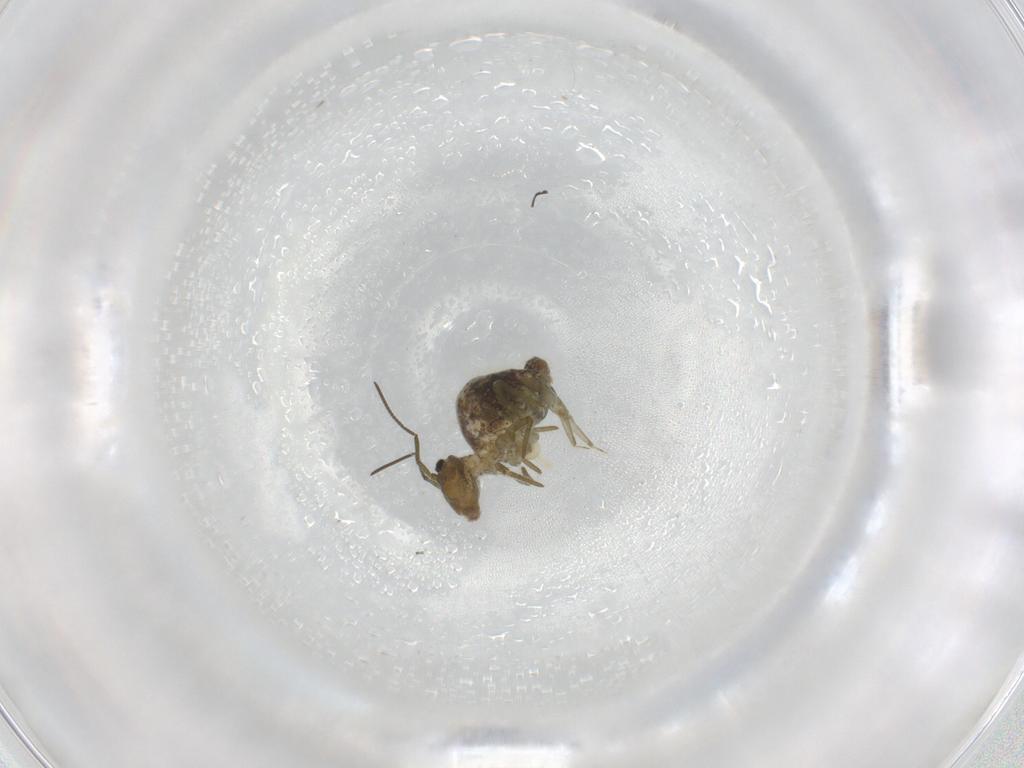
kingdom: Animalia
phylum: Arthropoda
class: Collembola
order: Symphypleona
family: Sminthuridae
